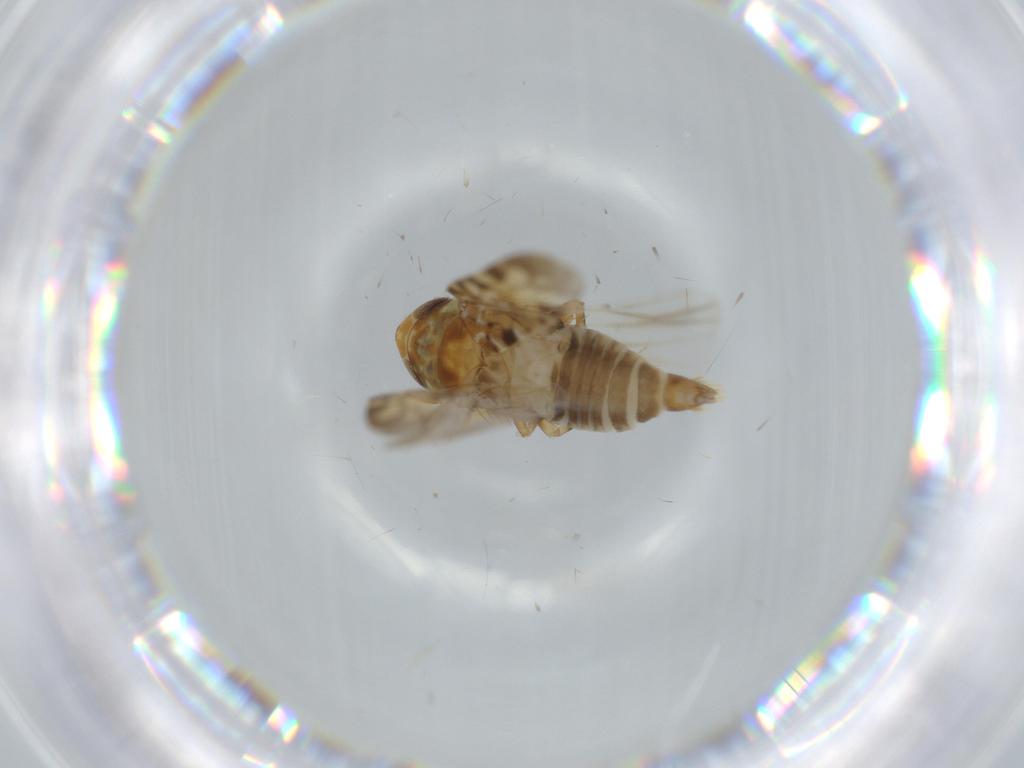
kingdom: Animalia
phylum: Arthropoda
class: Insecta
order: Hemiptera
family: Cicadellidae
